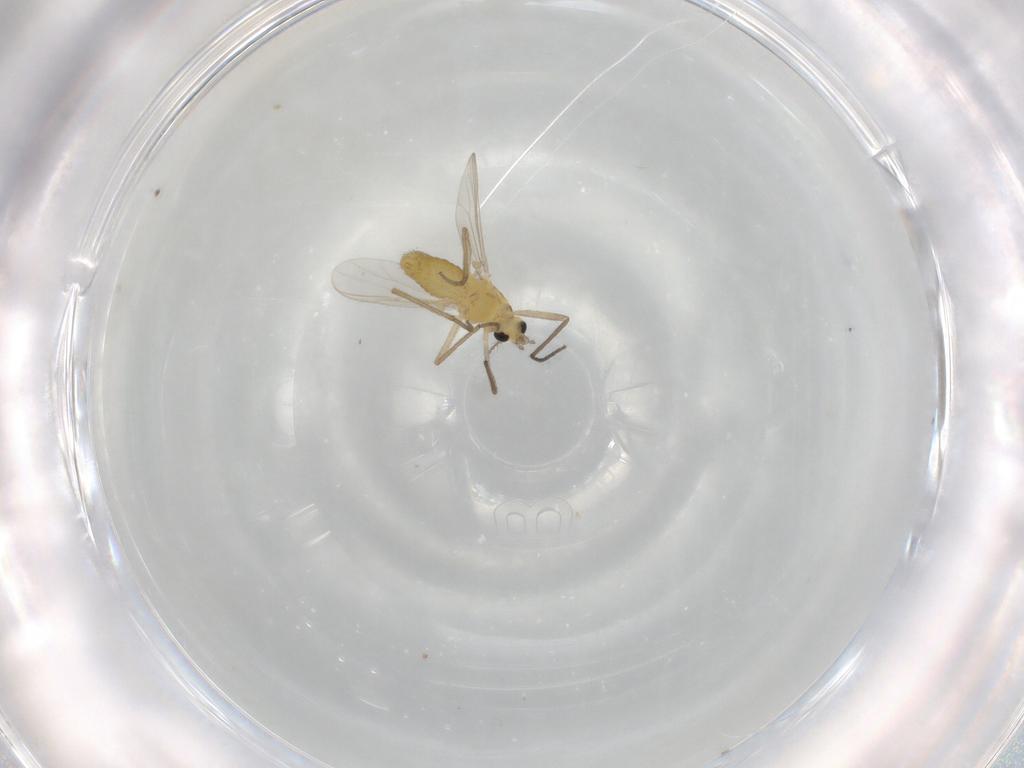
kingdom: Animalia
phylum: Arthropoda
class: Insecta
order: Diptera
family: Chironomidae
